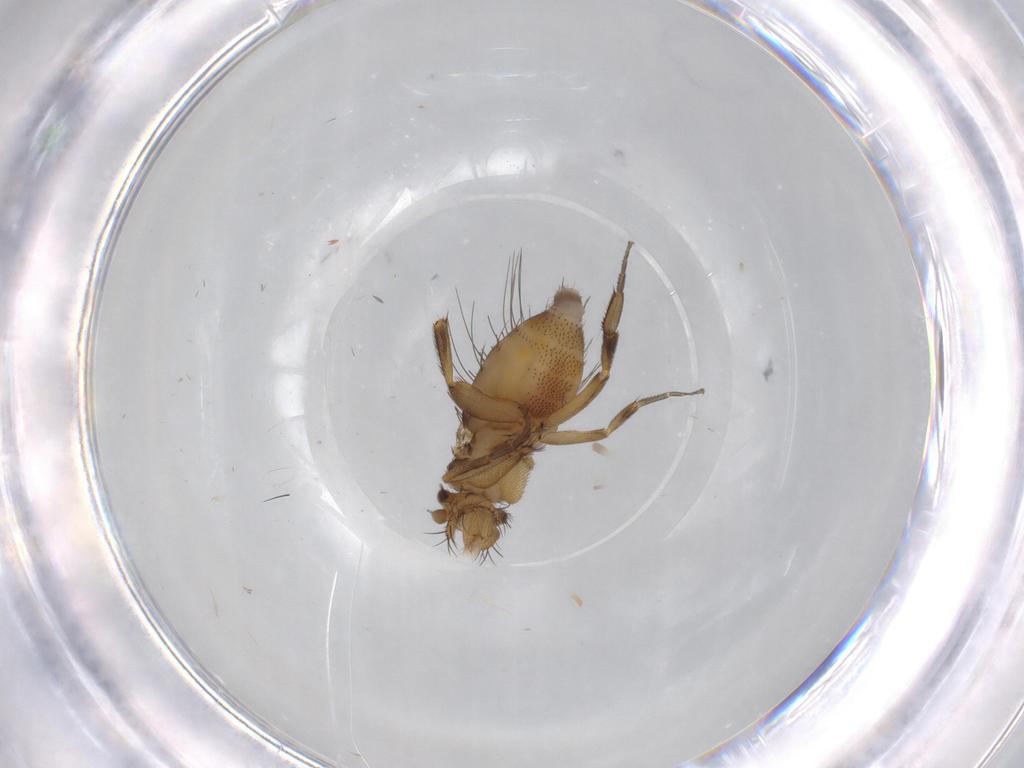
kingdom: Animalia
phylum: Arthropoda
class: Insecta
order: Diptera
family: Phoridae
